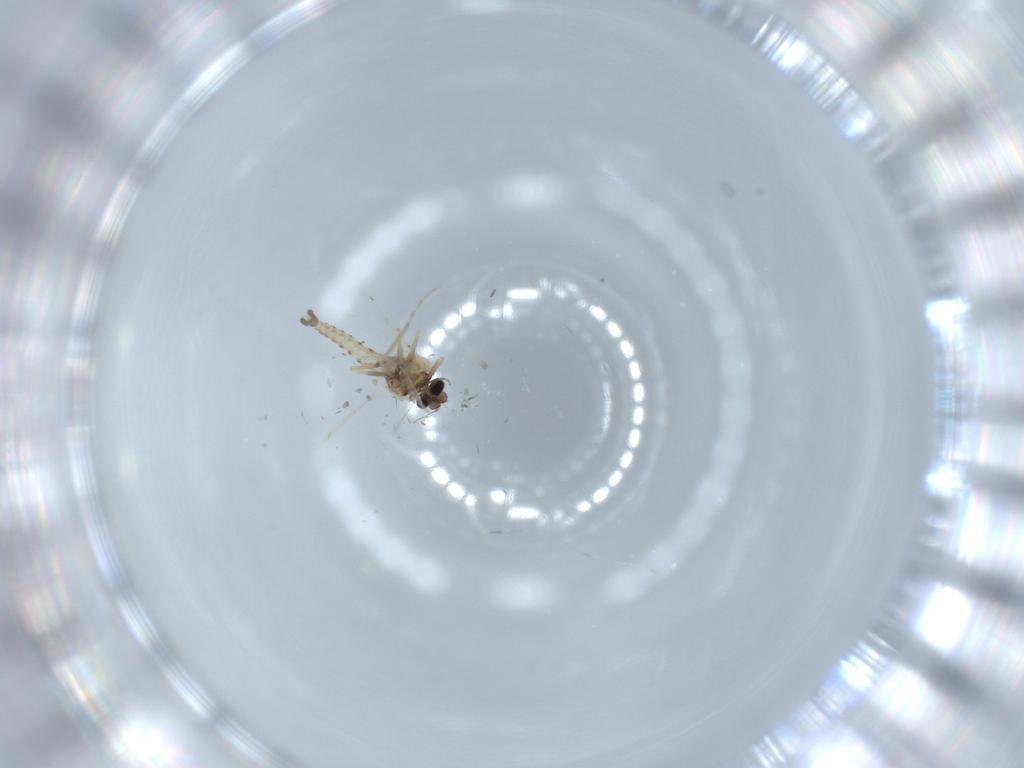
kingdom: Animalia
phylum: Arthropoda
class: Insecta
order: Diptera
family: Ceratopogonidae
